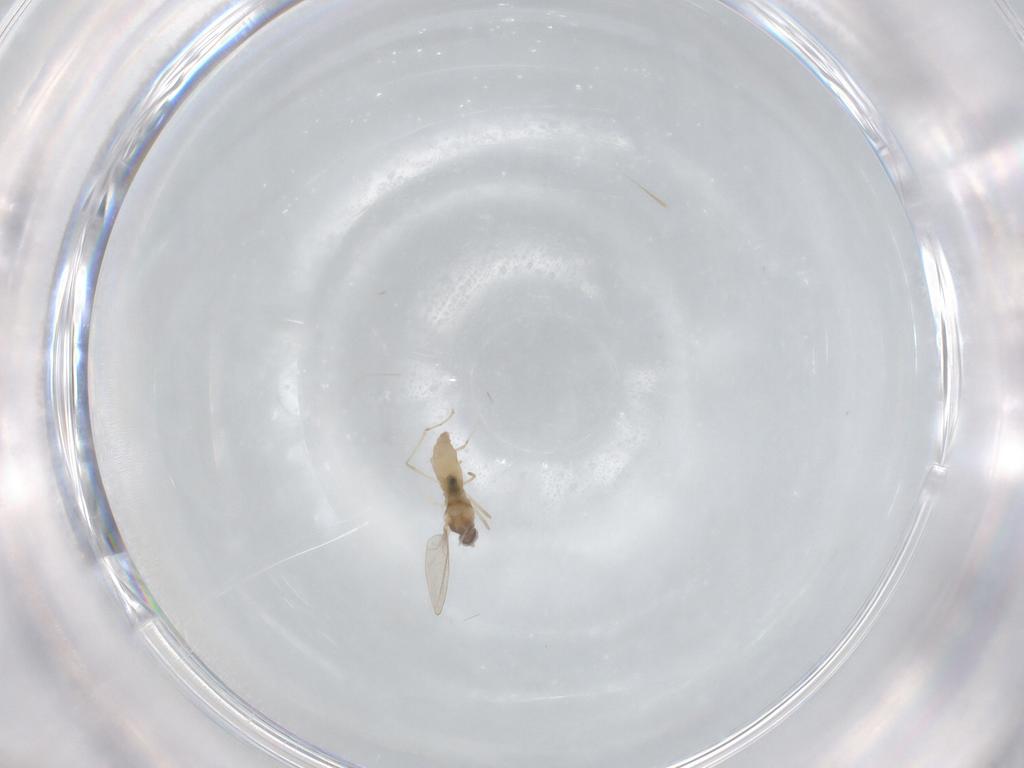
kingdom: Animalia
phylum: Arthropoda
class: Insecta
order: Diptera
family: Cecidomyiidae
